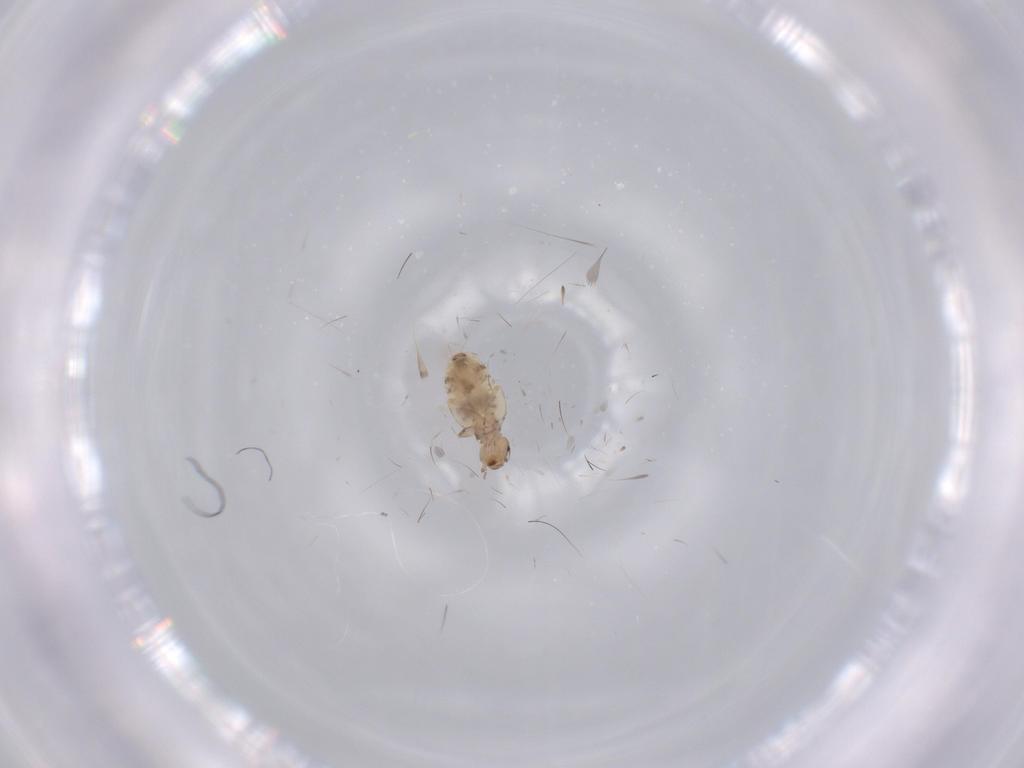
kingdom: Animalia
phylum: Arthropoda
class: Insecta
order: Psocodea
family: Liposcelididae
